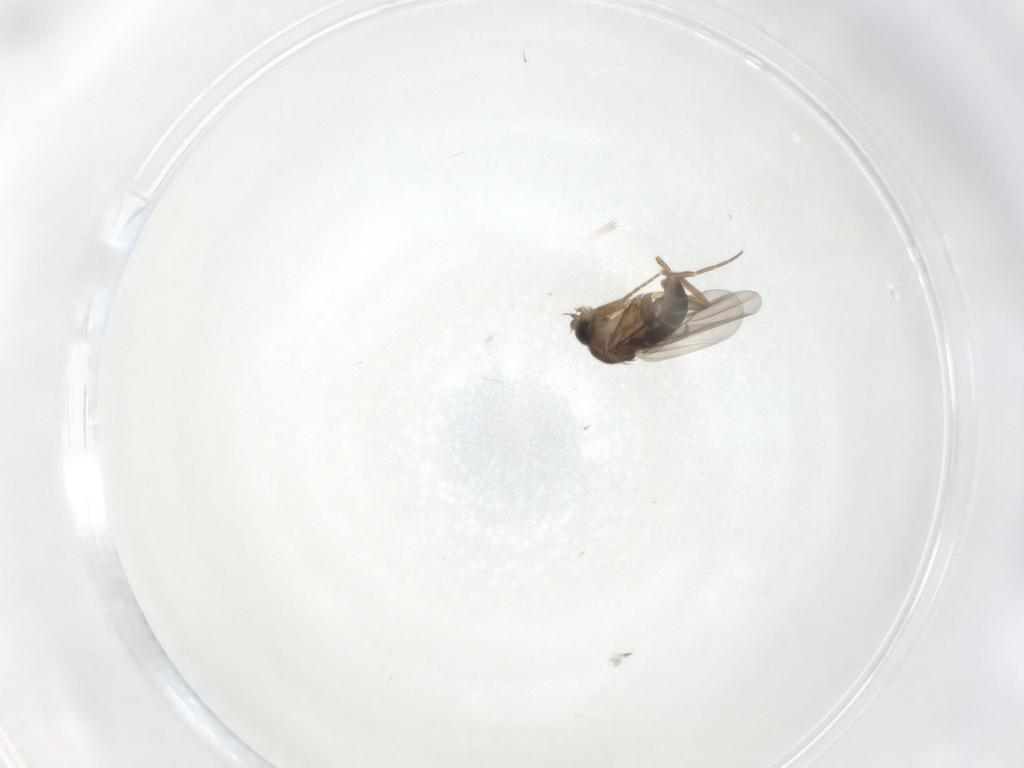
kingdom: Animalia
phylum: Arthropoda
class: Insecta
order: Diptera
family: Psychodidae
